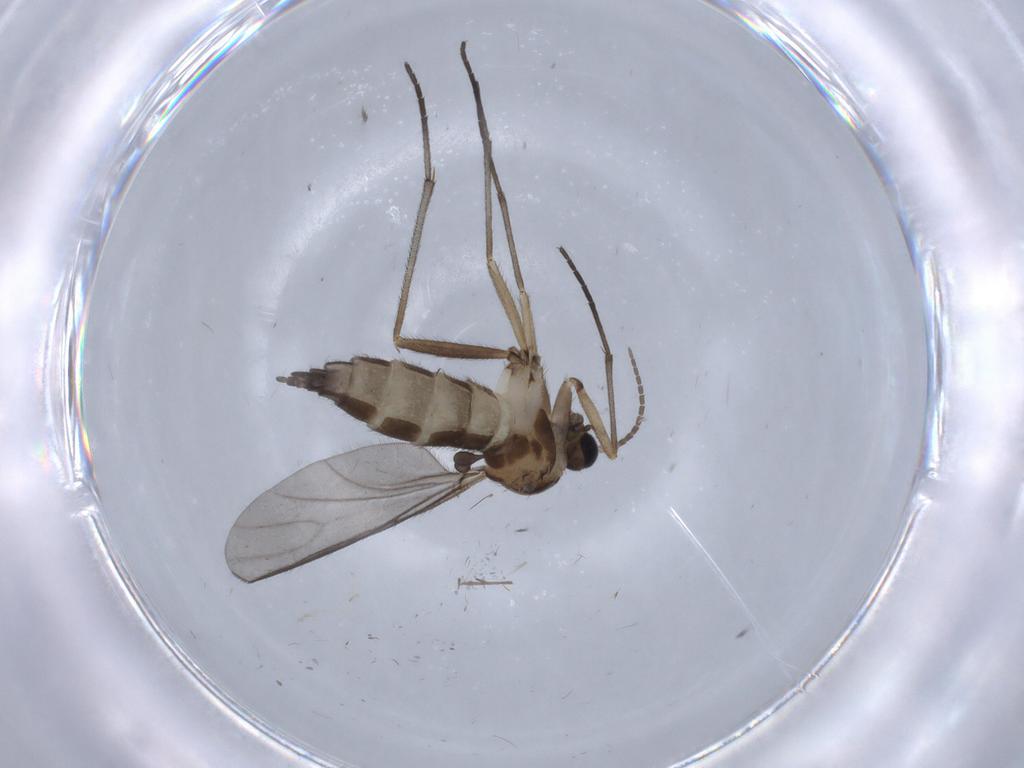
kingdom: Animalia
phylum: Arthropoda
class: Insecta
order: Diptera
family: Sciaridae
